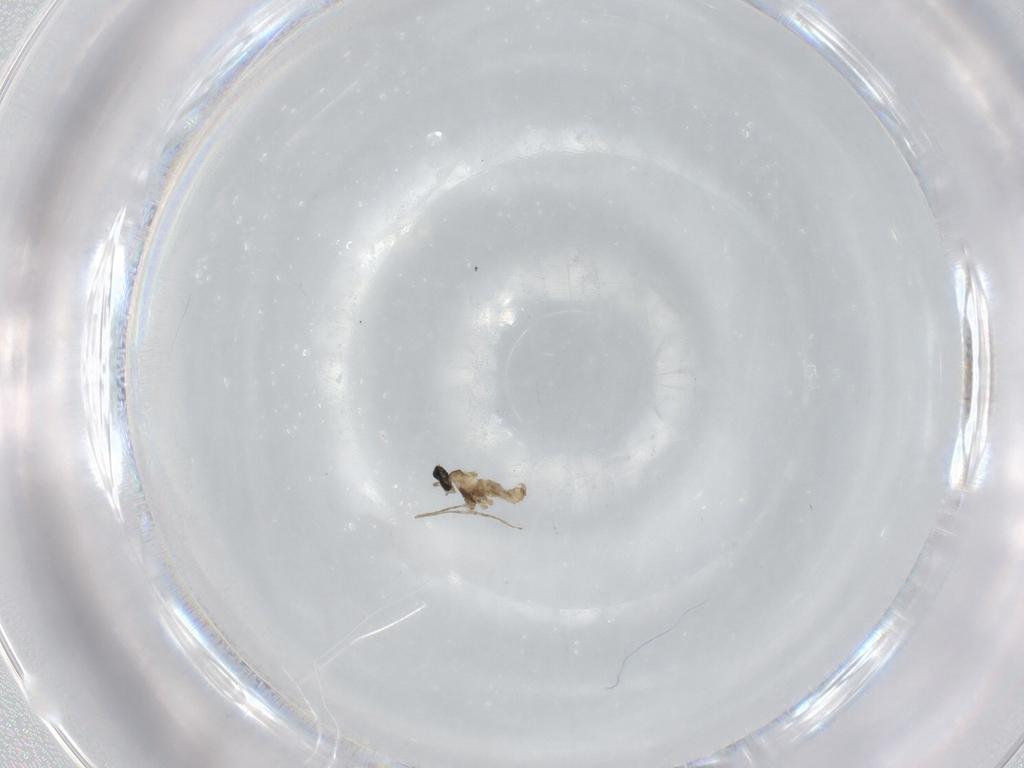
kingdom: Animalia
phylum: Arthropoda
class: Insecta
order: Diptera
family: Cecidomyiidae
